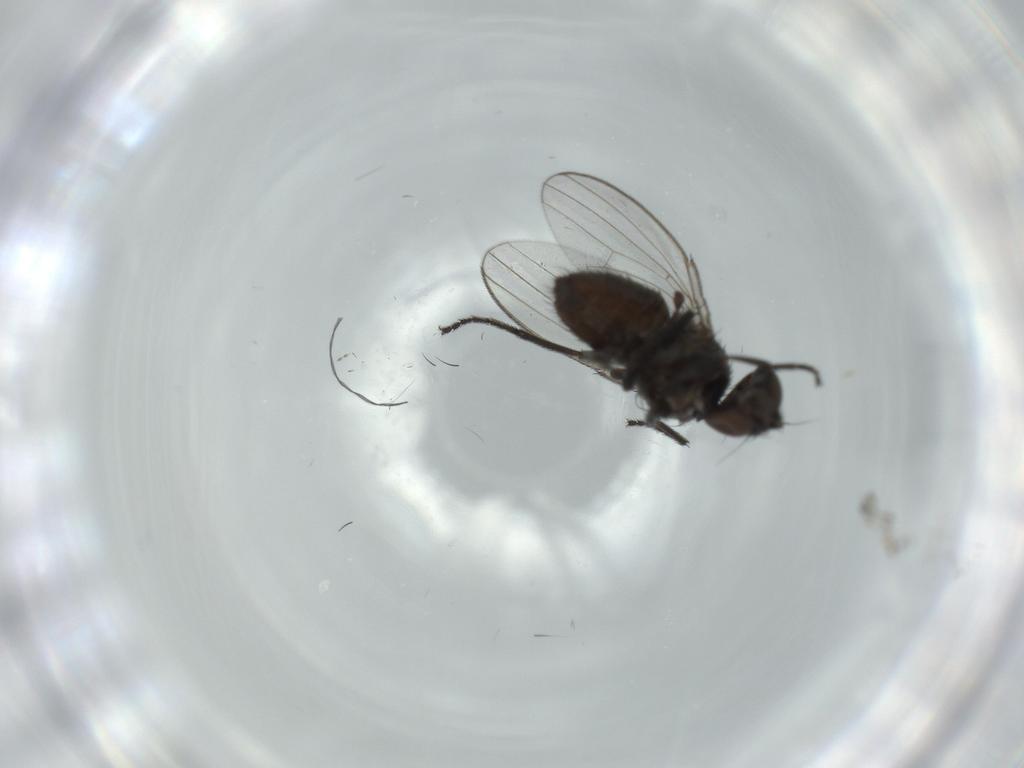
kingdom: Animalia
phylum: Arthropoda
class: Insecta
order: Diptera
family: Milichiidae
